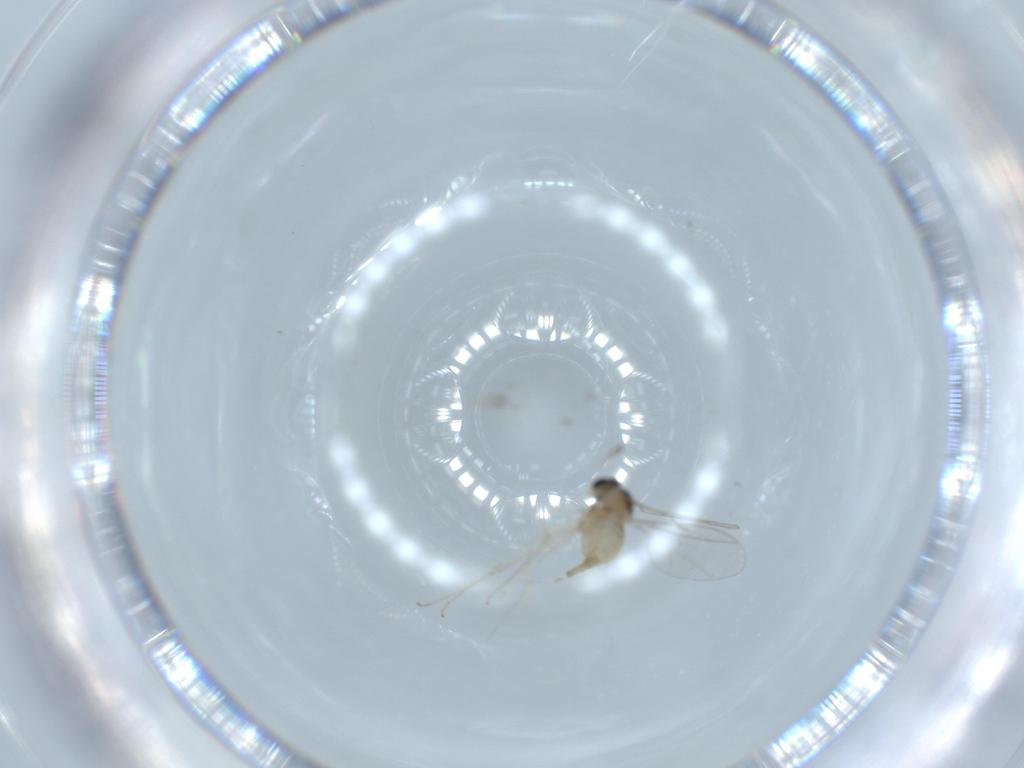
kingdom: Animalia
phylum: Arthropoda
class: Insecta
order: Diptera
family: Cecidomyiidae
